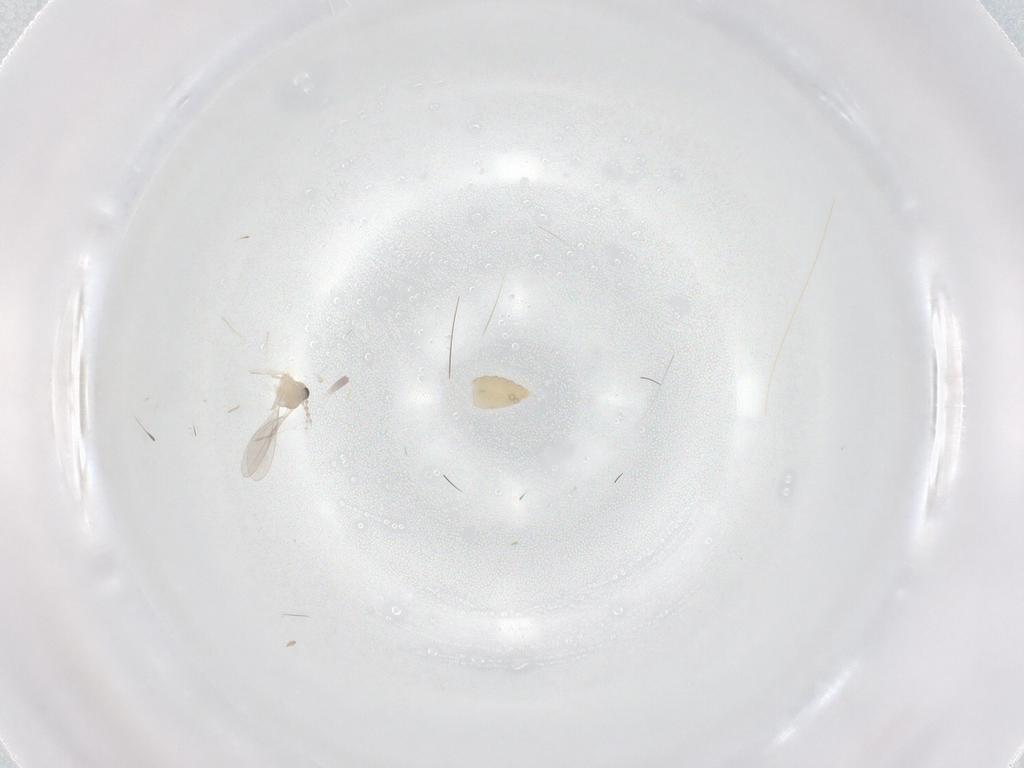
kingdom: Animalia
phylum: Arthropoda
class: Insecta
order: Diptera
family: Cecidomyiidae
